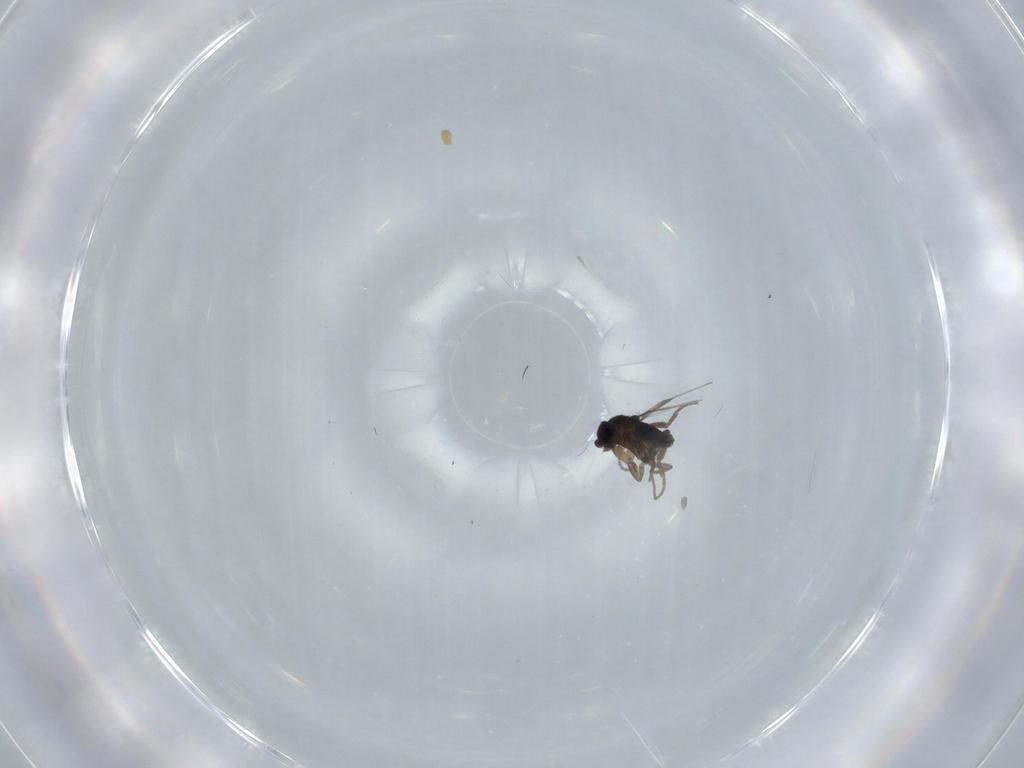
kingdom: Animalia
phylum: Arthropoda
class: Insecta
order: Diptera
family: Phoridae
